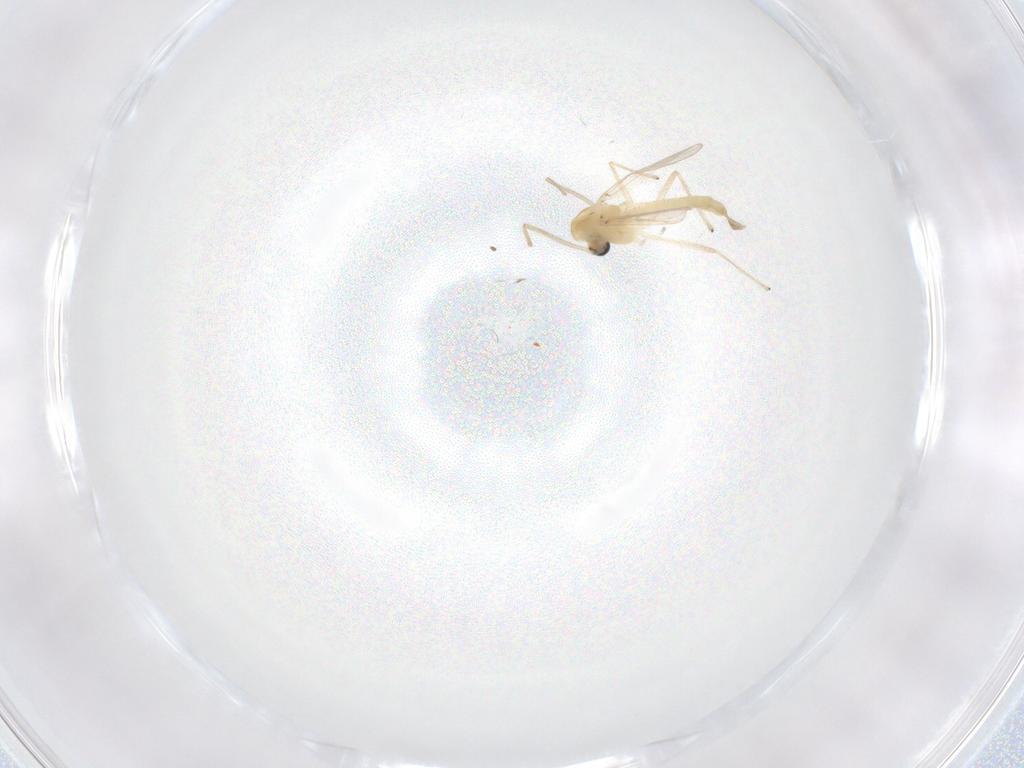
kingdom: Animalia
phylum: Arthropoda
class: Insecta
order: Diptera
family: Chironomidae
